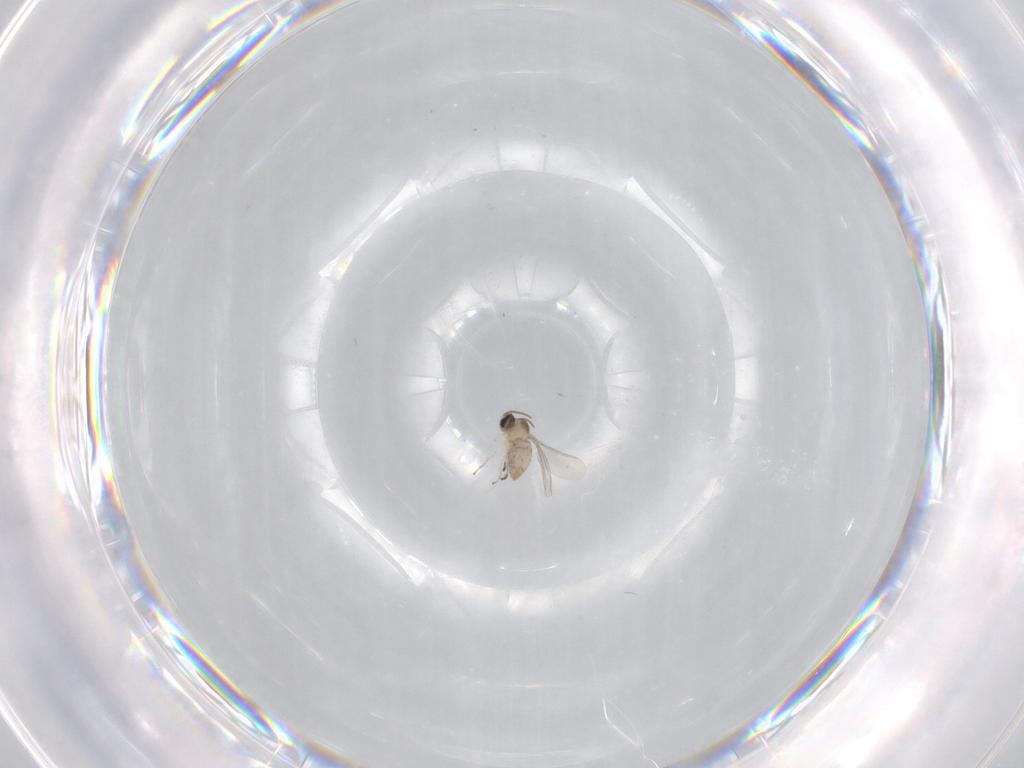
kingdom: Animalia
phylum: Arthropoda
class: Insecta
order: Diptera
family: Cecidomyiidae
